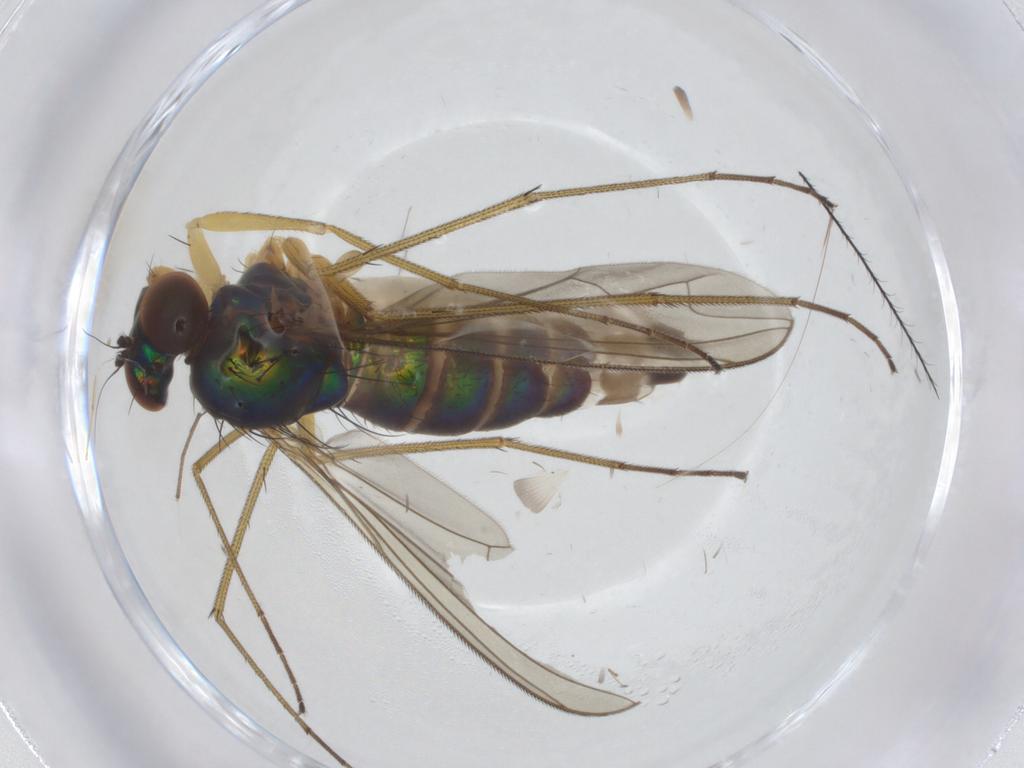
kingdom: Animalia
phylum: Arthropoda
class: Insecta
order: Diptera
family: Dolichopodidae
